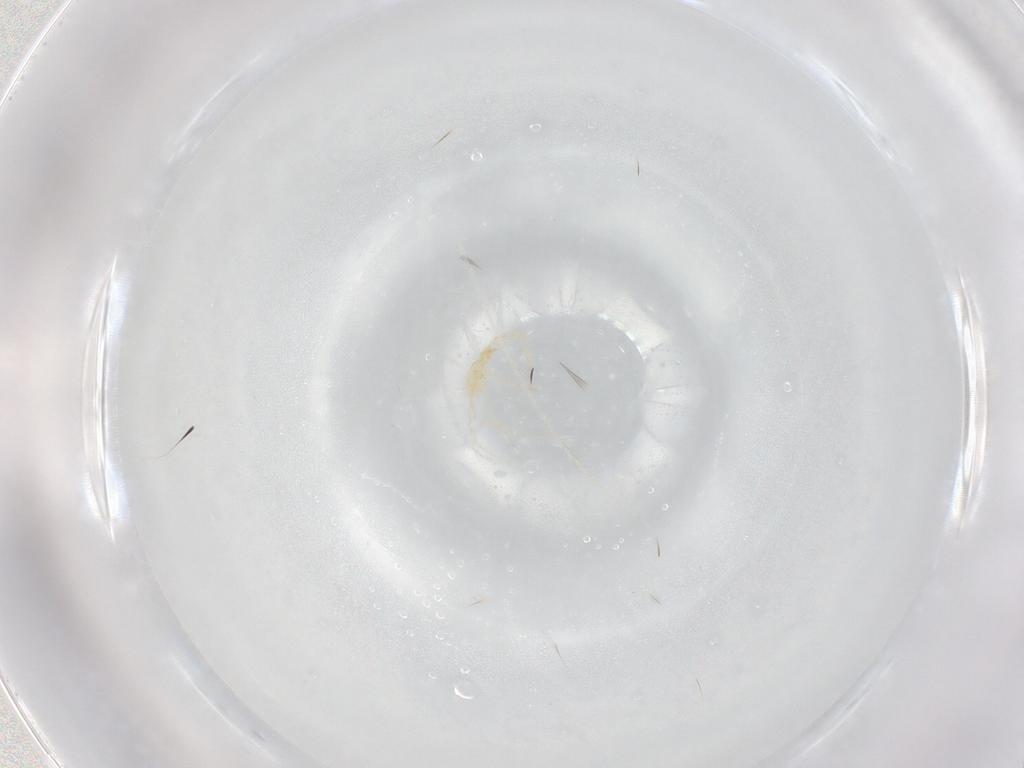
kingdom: Animalia
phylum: Arthropoda
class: Arachnida
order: Trombidiformes
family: Erythraeidae
